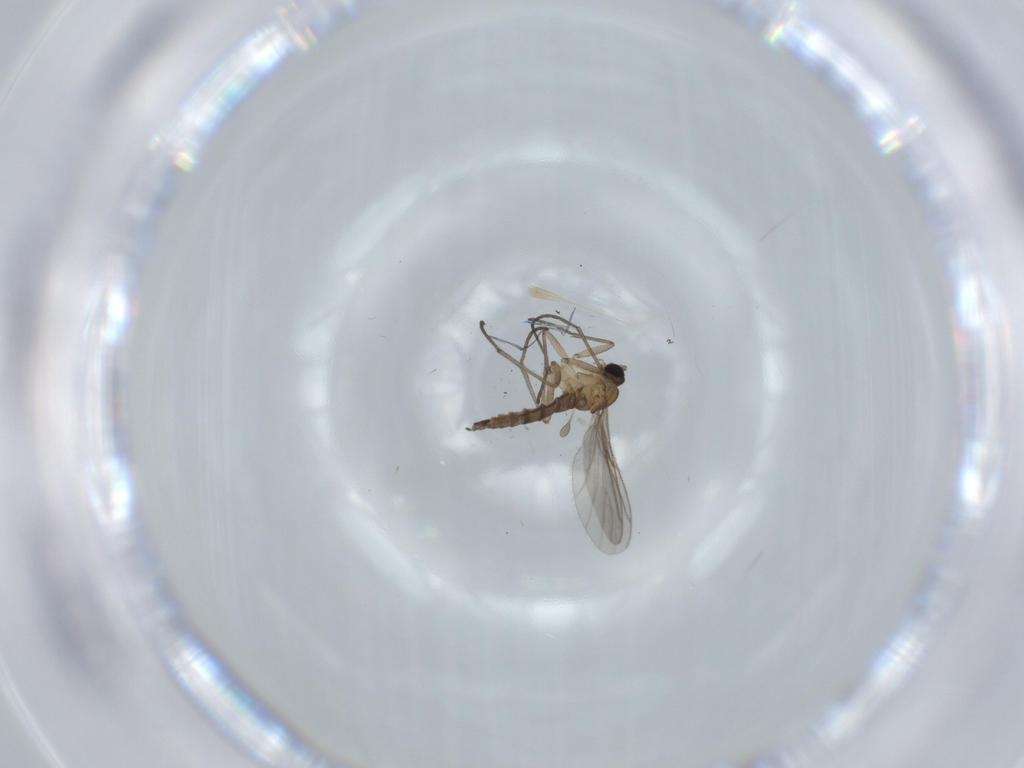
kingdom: Animalia
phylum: Arthropoda
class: Insecta
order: Diptera
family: Sciaridae
